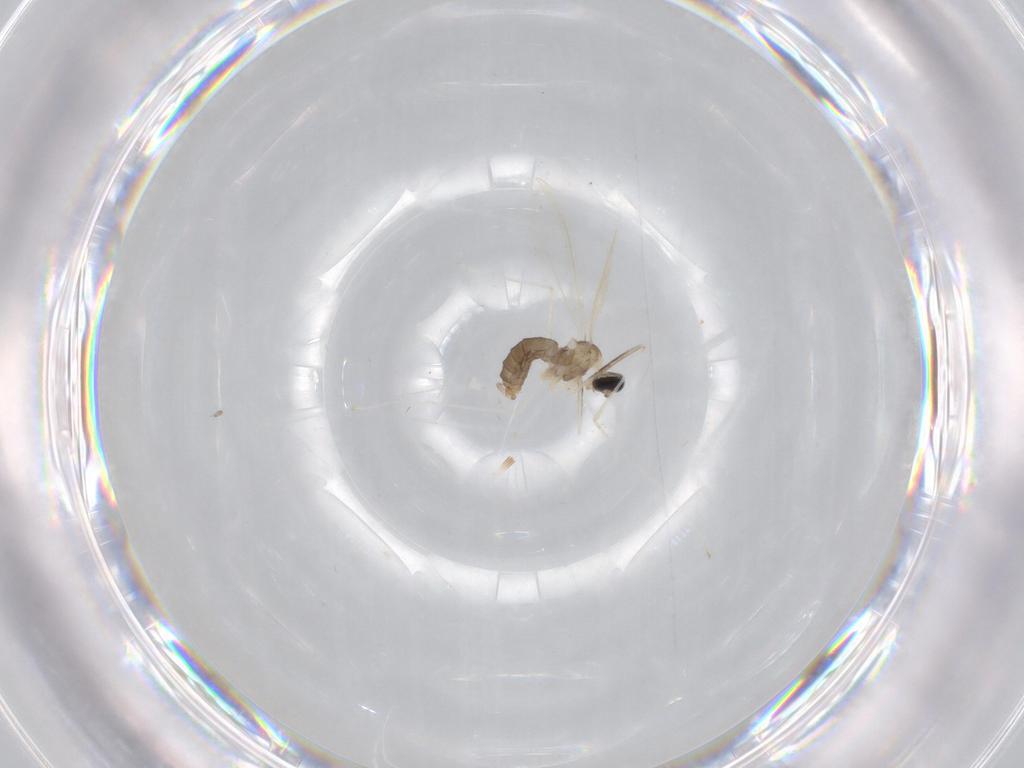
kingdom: Animalia
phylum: Arthropoda
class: Insecta
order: Diptera
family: Cecidomyiidae
